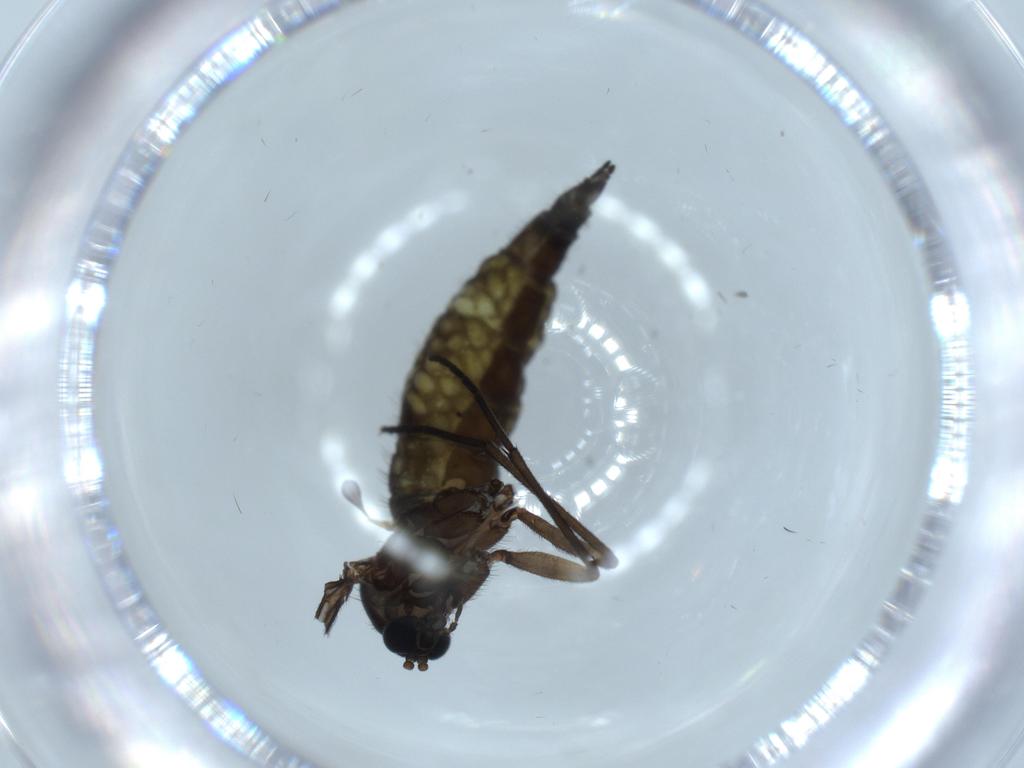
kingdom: Animalia
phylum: Arthropoda
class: Insecta
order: Diptera
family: Sciaridae
